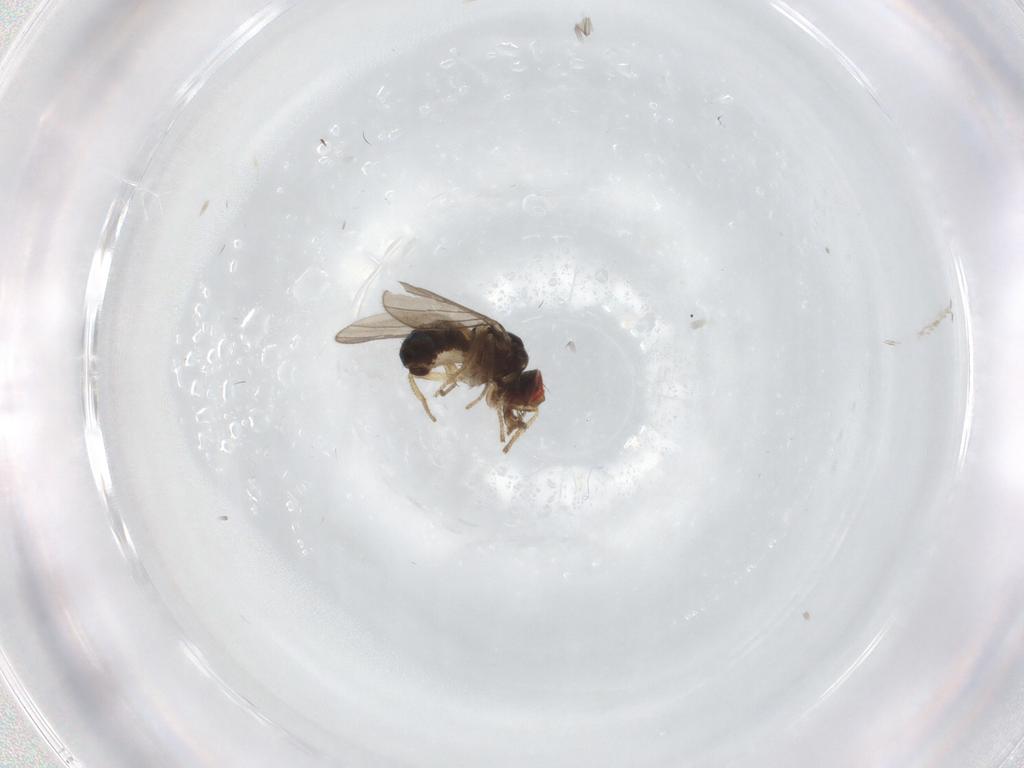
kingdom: Animalia
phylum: Arthropoda
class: Insecta
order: Diptera
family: Drosophilidae
